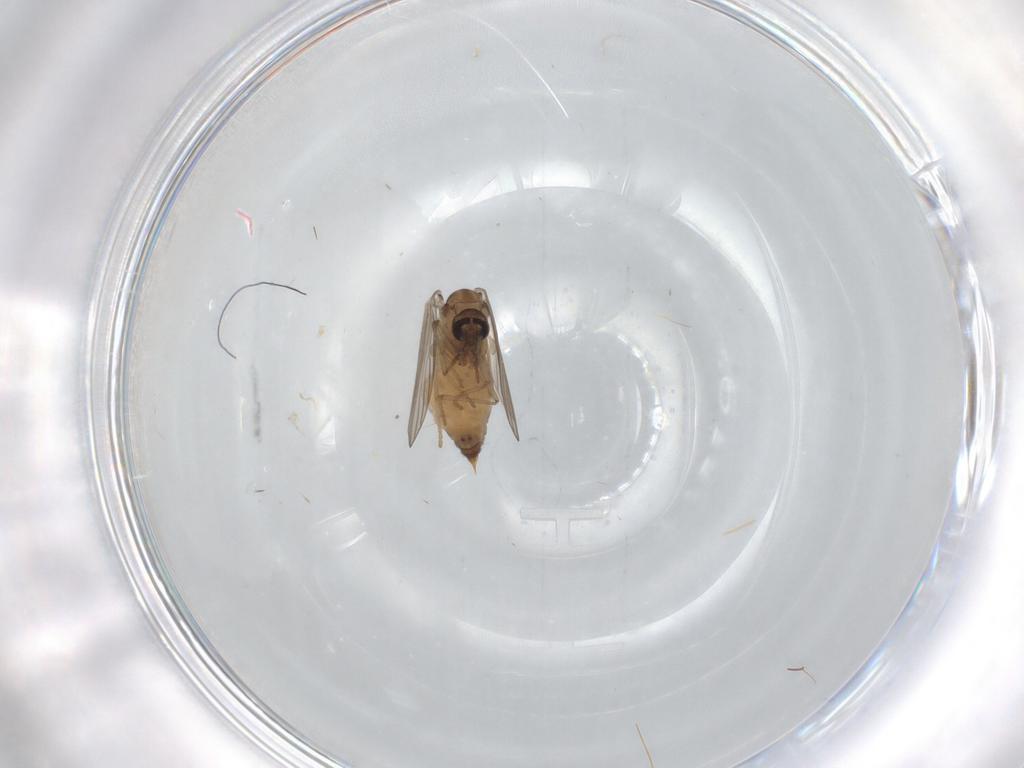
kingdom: Animalia
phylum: Arthropoda
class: Insecta
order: Diptera
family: Psychodidae
